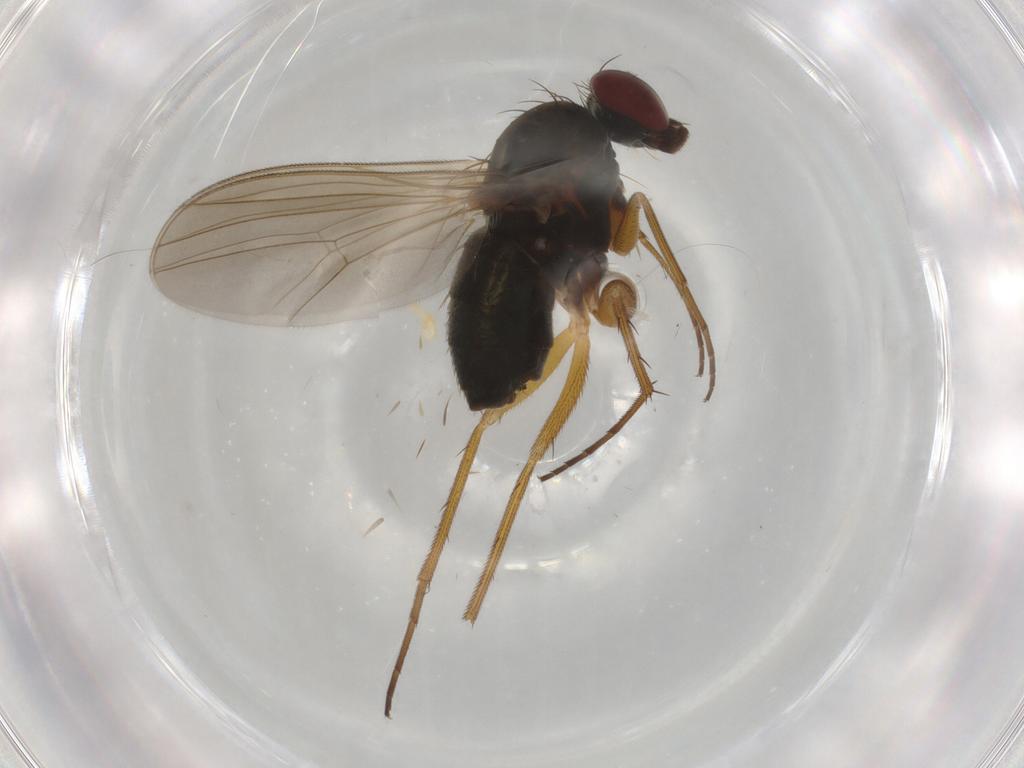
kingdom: Animalia
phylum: Arthropoda
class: Insecta
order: Diptera
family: Dolichopodidae
